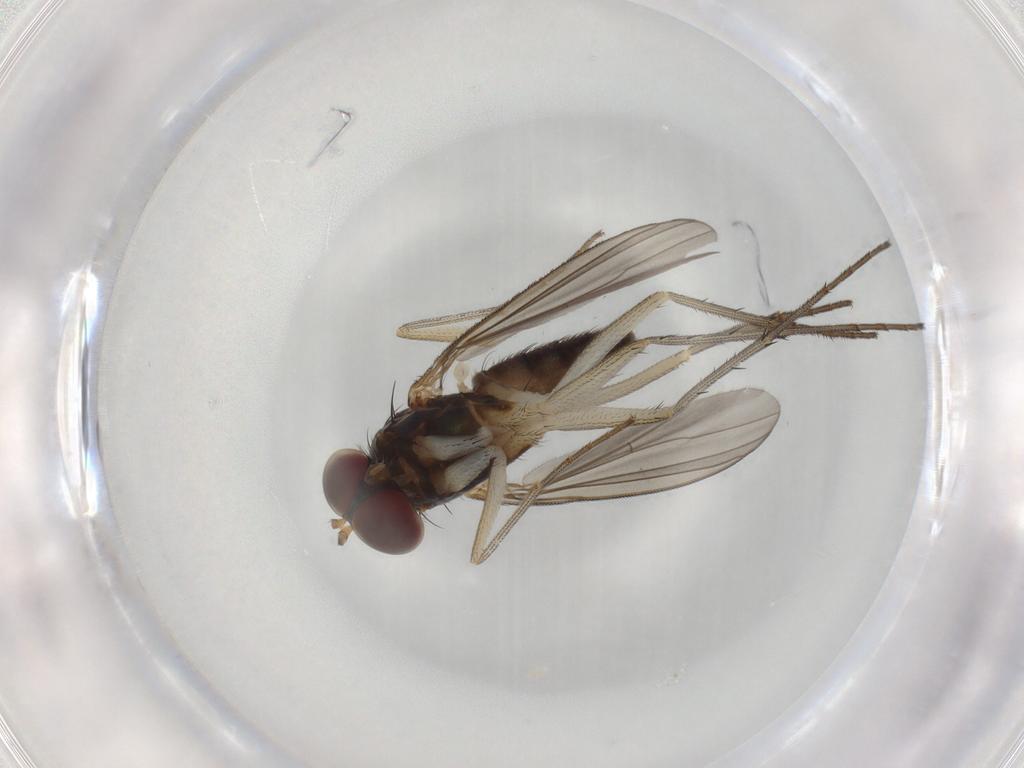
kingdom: Animalia
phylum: Arthropoda
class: Insecta
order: Diptera
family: Dolichopodidae
